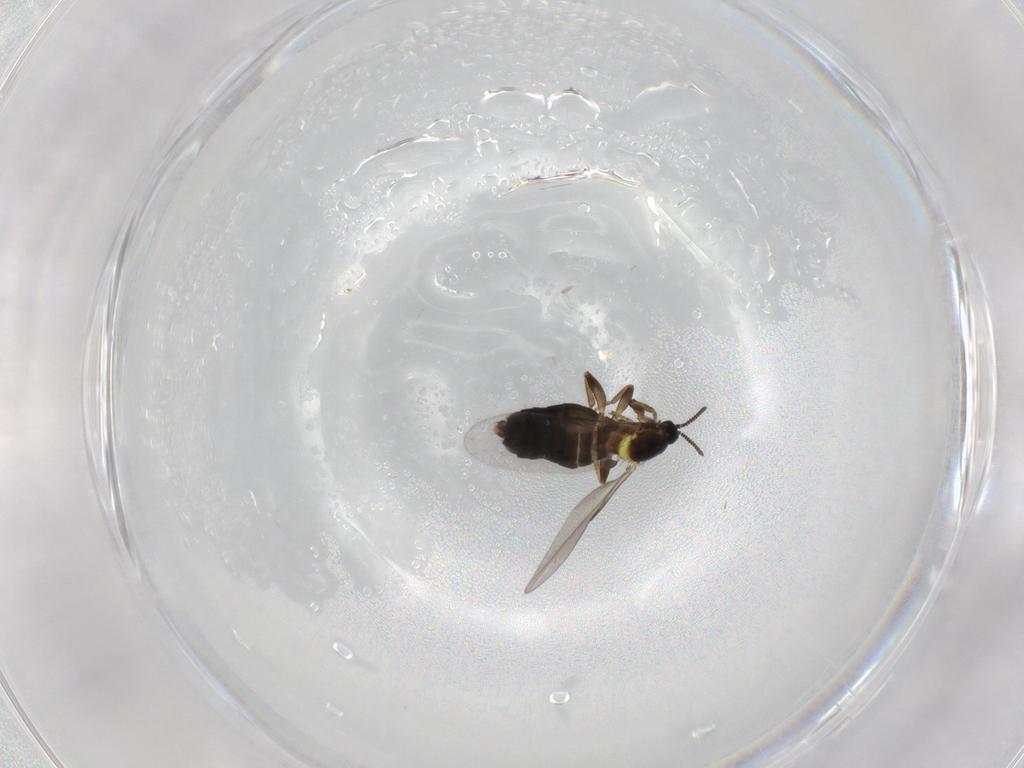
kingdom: Animalia
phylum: Arthropoda
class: Insecta
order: Diptera
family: Scatopsidae
